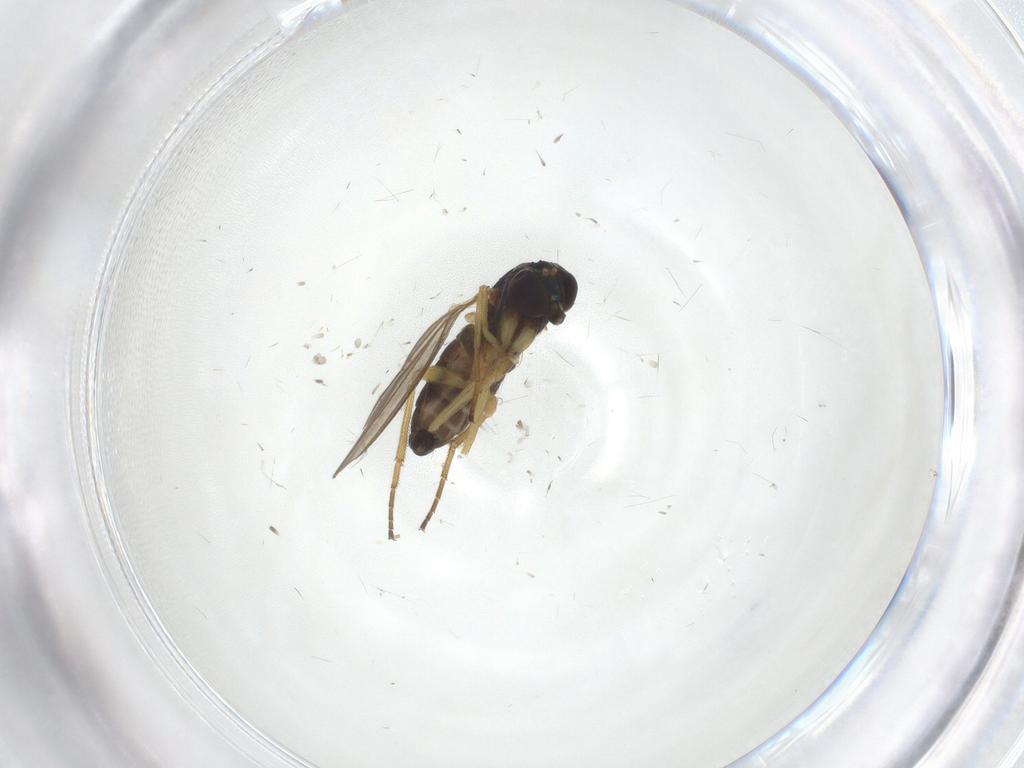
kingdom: Animalia
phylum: Arthropoda
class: Insecta
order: Diptera
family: Dolichopodidae
